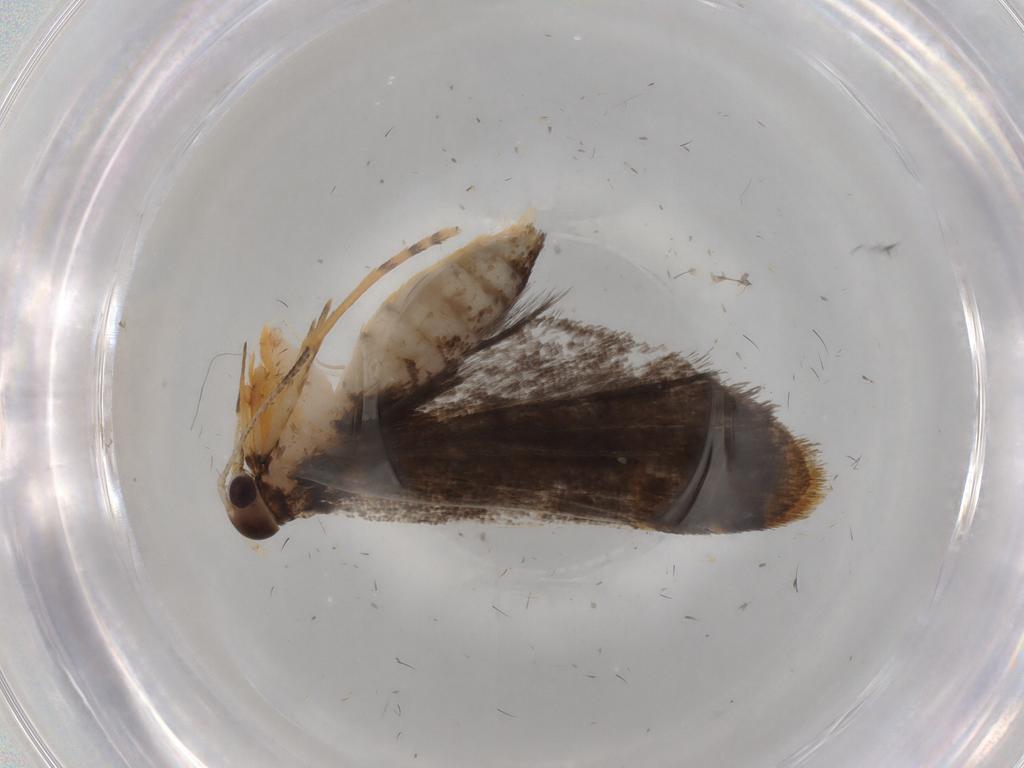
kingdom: Animalia
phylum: Arthropoda
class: Insecta
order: Lepidoptera
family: Cosmopterigidae
